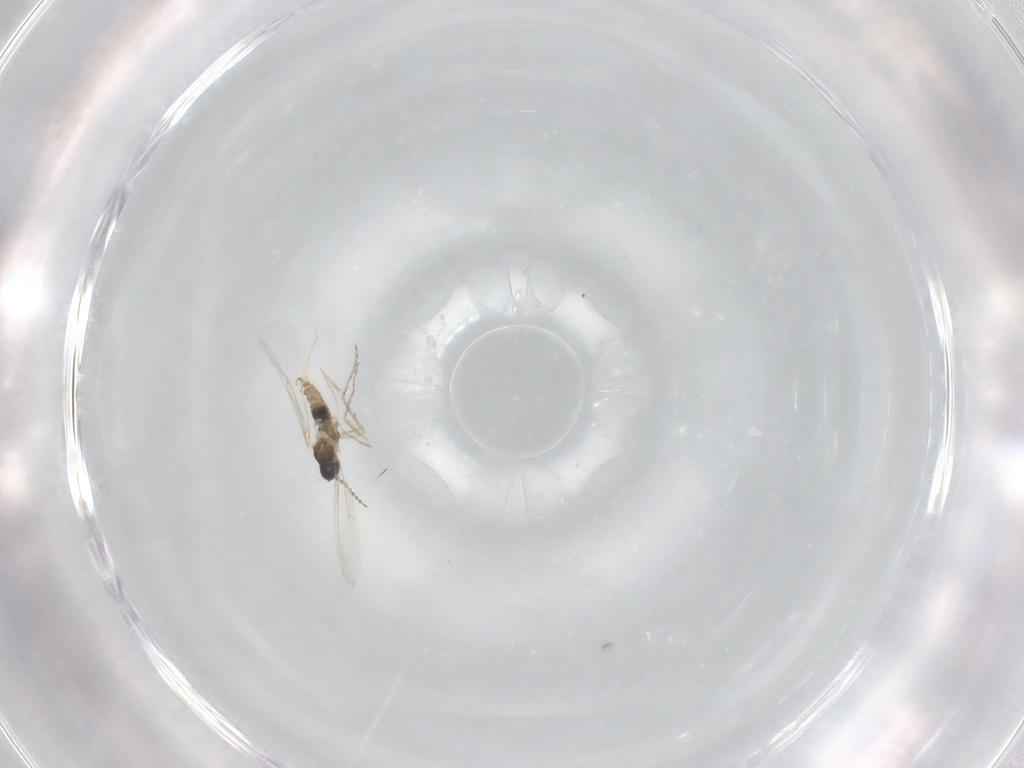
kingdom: Animalia
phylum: Arthropoda
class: Insecta
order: Diptera
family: Cecidomyiidae
